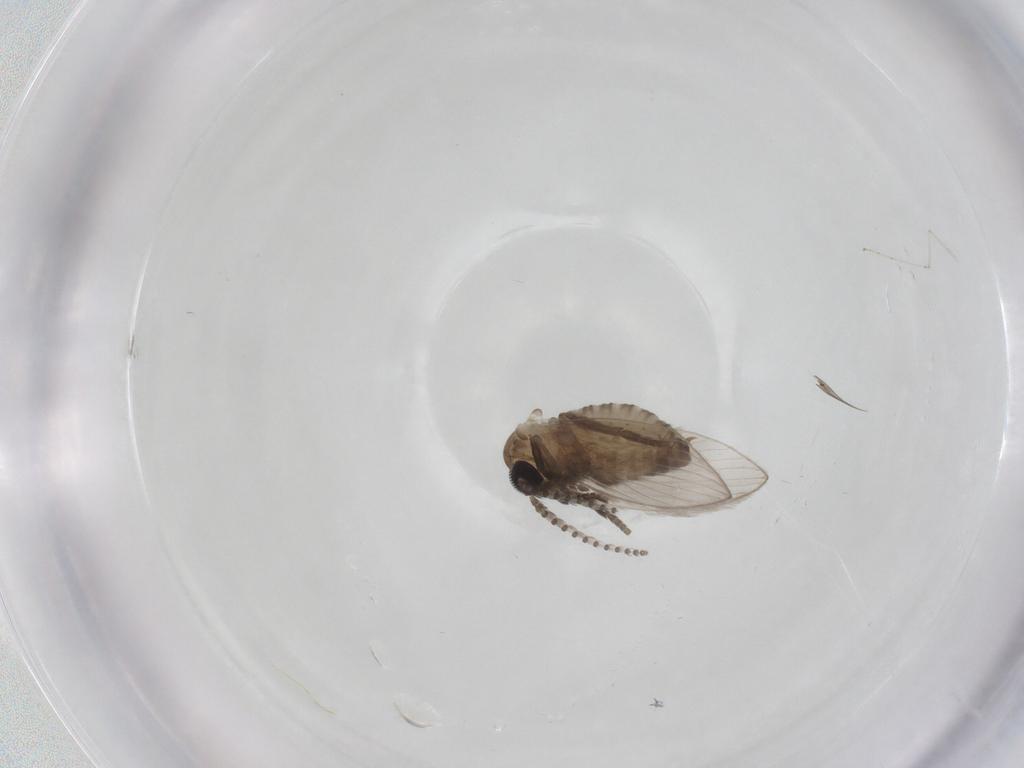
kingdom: Animalia
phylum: Arthropoda
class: Insecta
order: Diptera
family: Psychodidae
